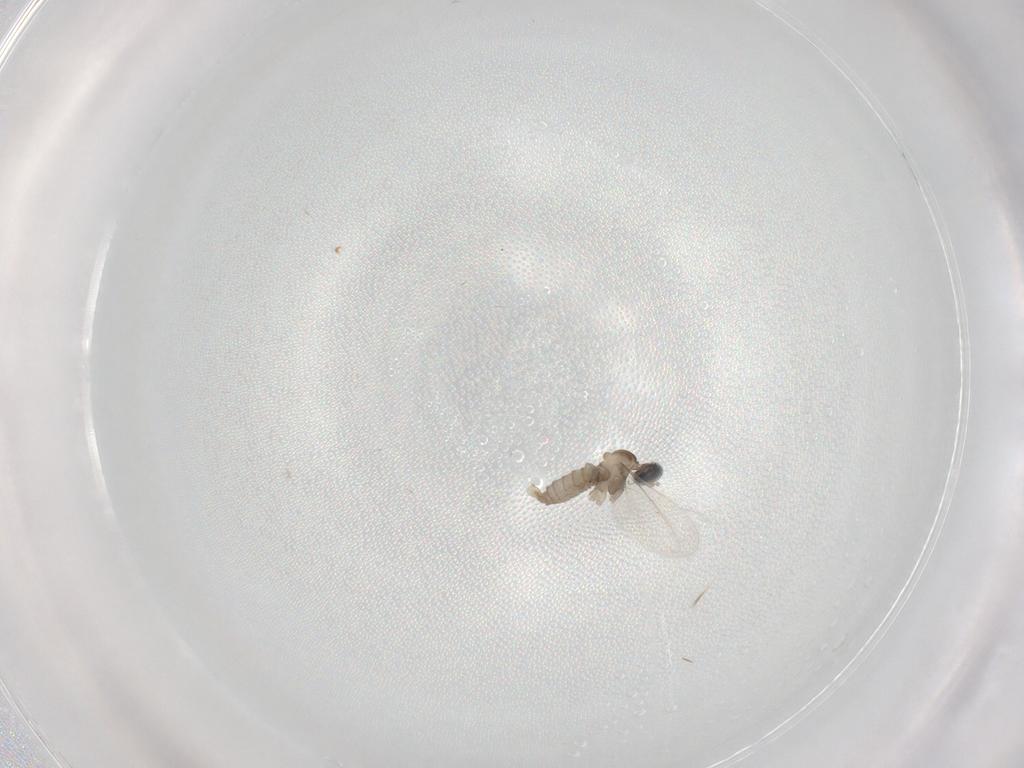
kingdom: Animalia
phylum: Arthropoda
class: Insecta
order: Diptera
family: Cecidomyiidae
